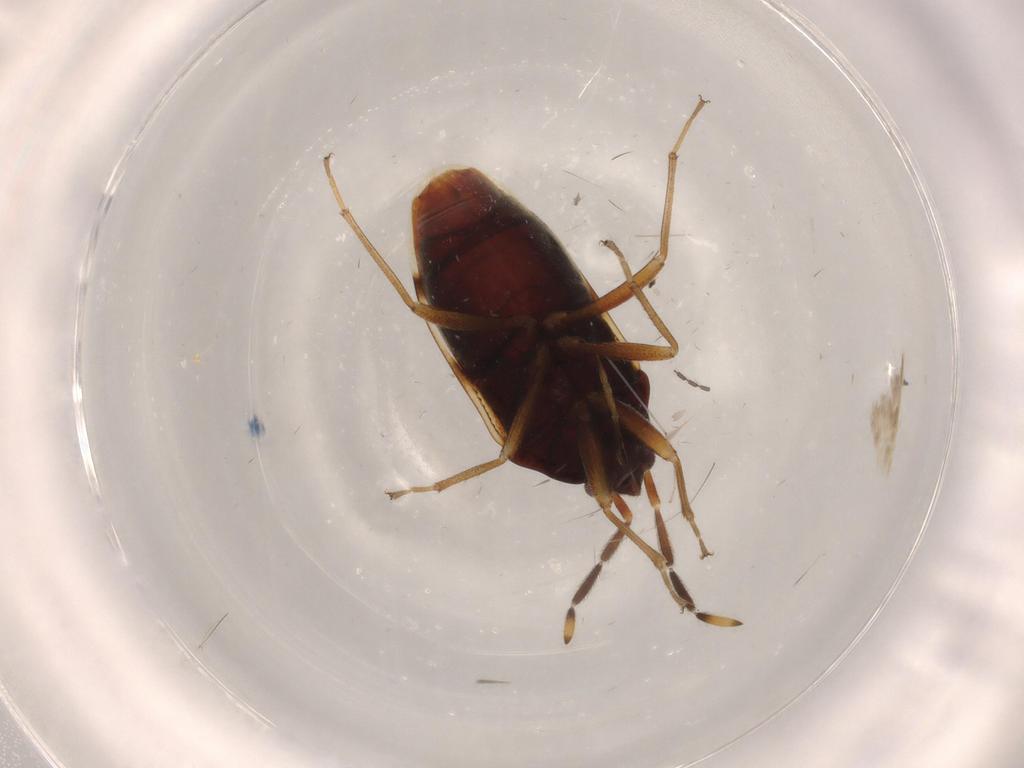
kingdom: Animalia
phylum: Arthropoda
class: Insecta
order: Hemiptera
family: Rhyparochromidae
